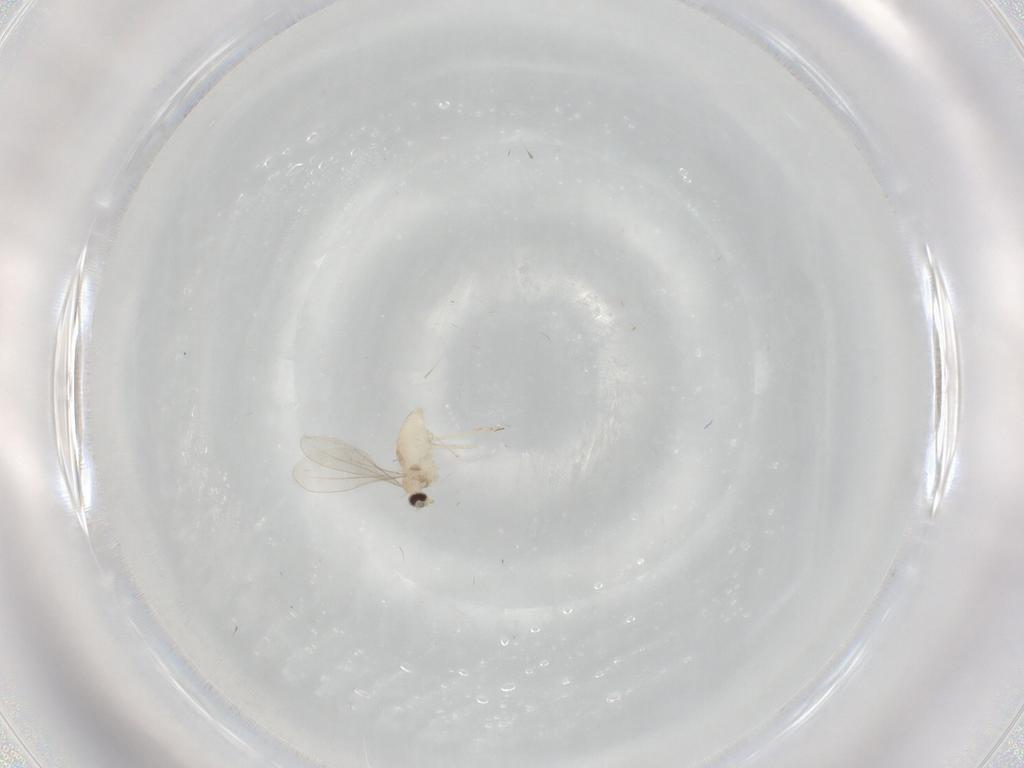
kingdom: Animalia
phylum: Arthropoda
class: Insecta
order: Diptera
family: Cecidomyiidae
